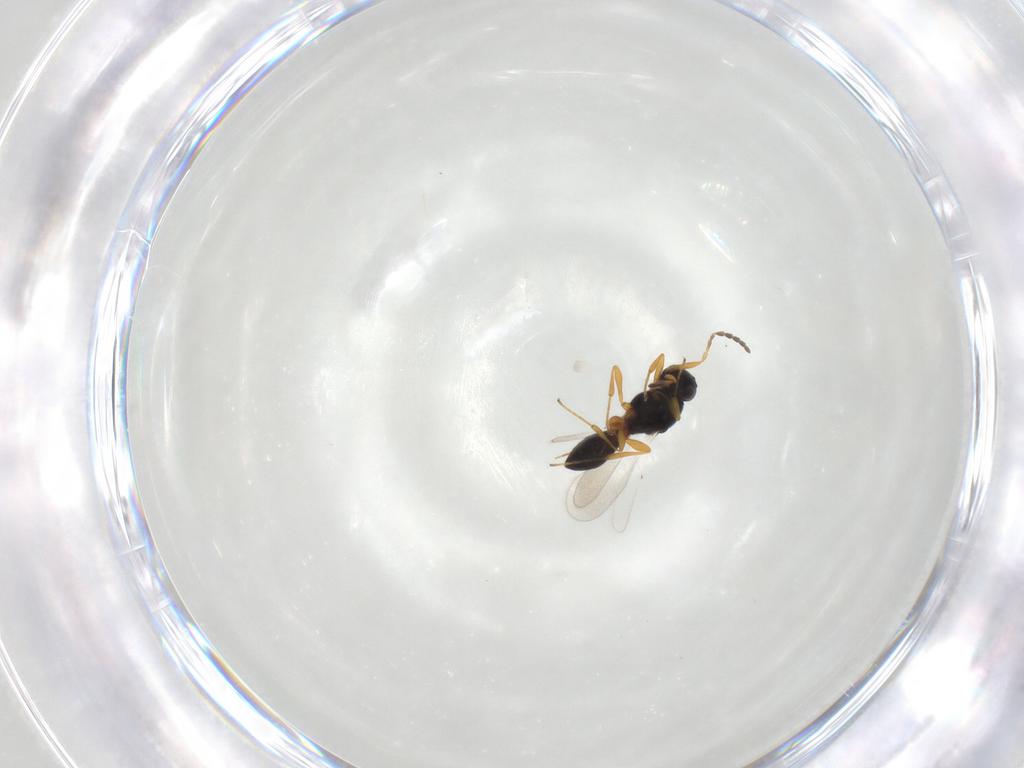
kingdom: Animalia
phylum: Arthropoda
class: Insecta
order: Hymenoptera
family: Platygastridae
